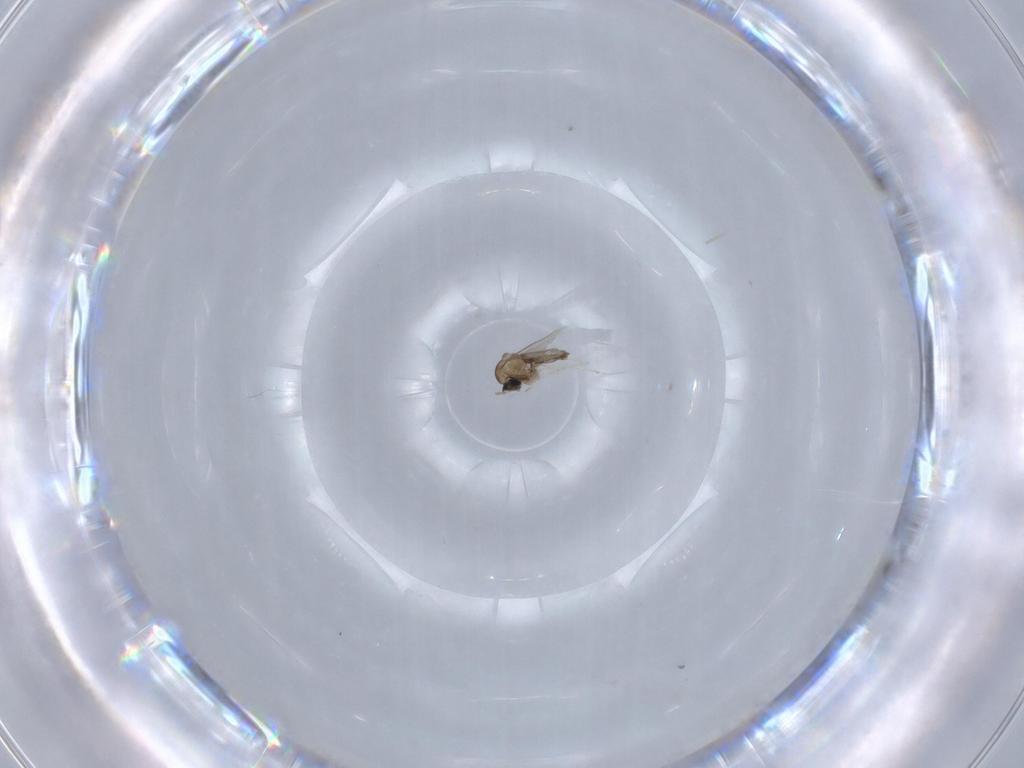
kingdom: Animalia
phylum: Arthropoda
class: Insecta
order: Diptera
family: Cecidomyiidae
